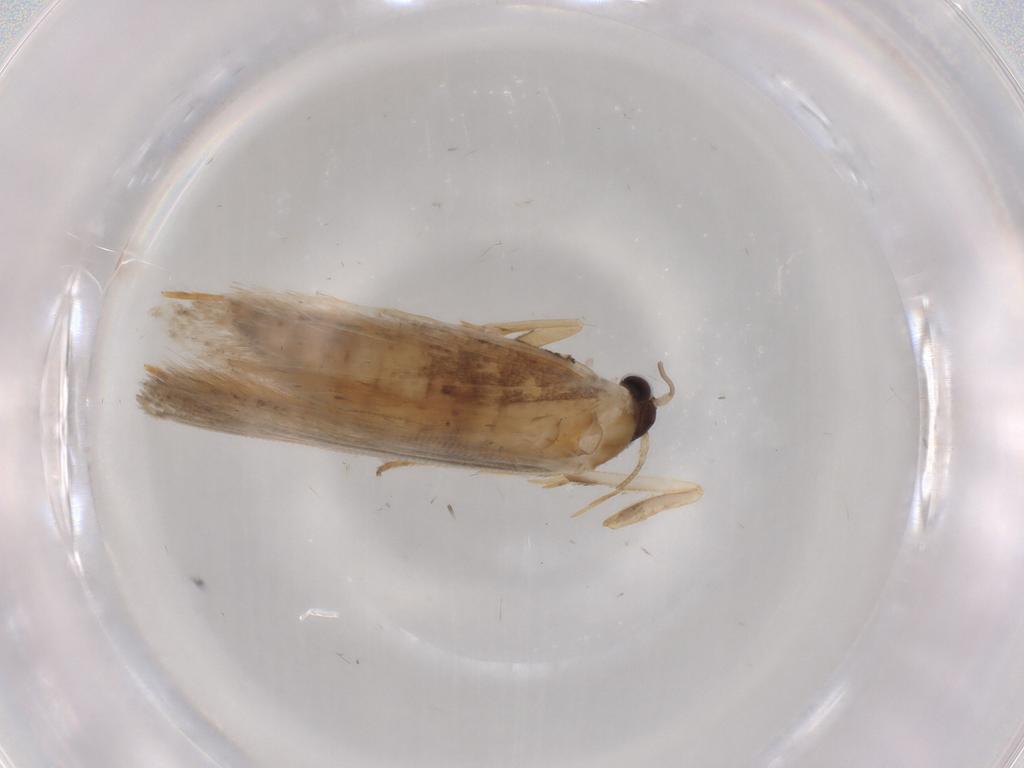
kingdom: Animalia
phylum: Arthropoda
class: Insecta
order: Lepidoptera
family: Noctuidae
